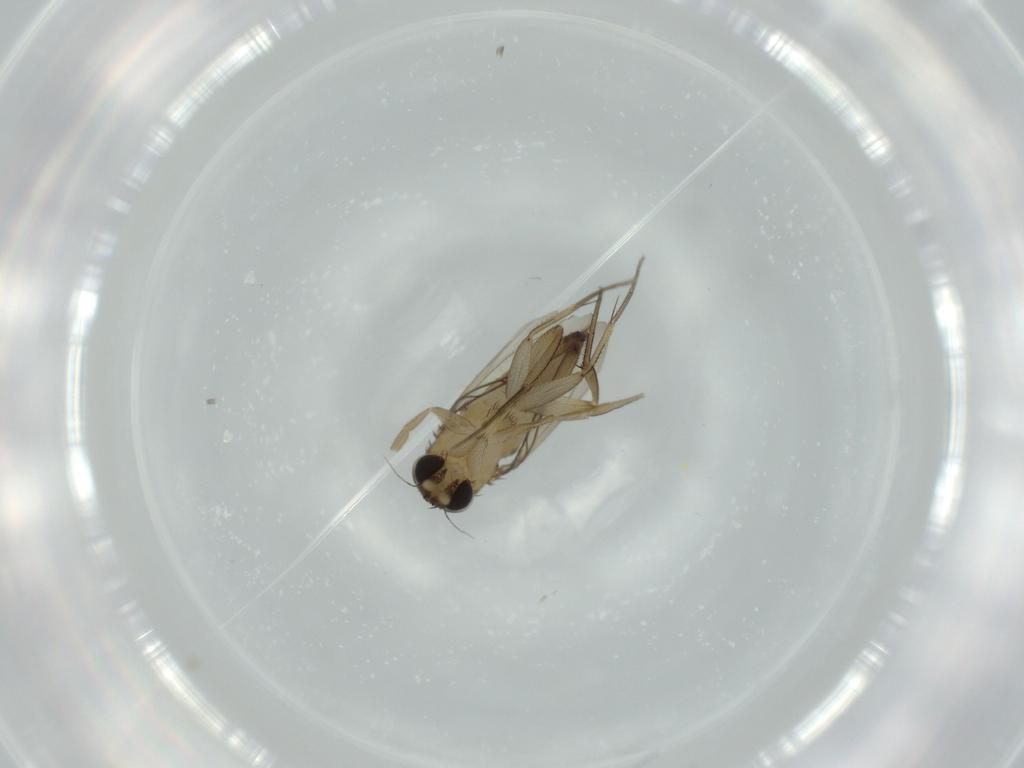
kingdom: Animalia
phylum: Arthropoda
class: Insecta
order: Diptera
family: Phoridae
